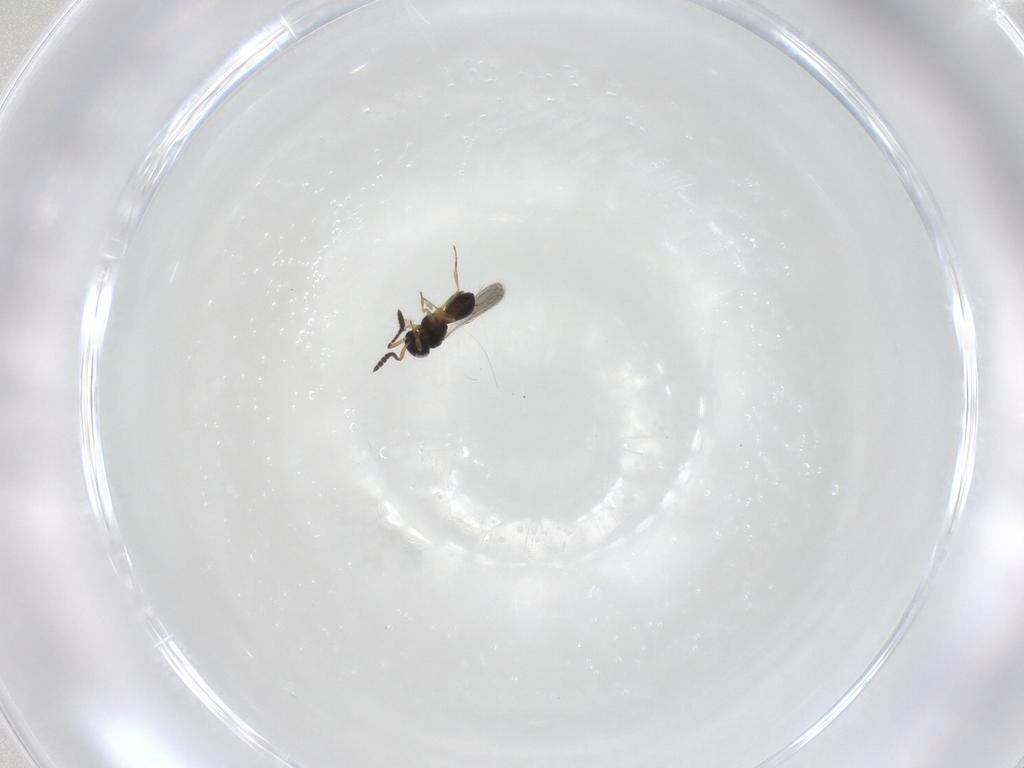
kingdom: Animalia
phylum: Arthropoda
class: Insecta
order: Hymenoptera
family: Scelionidae
